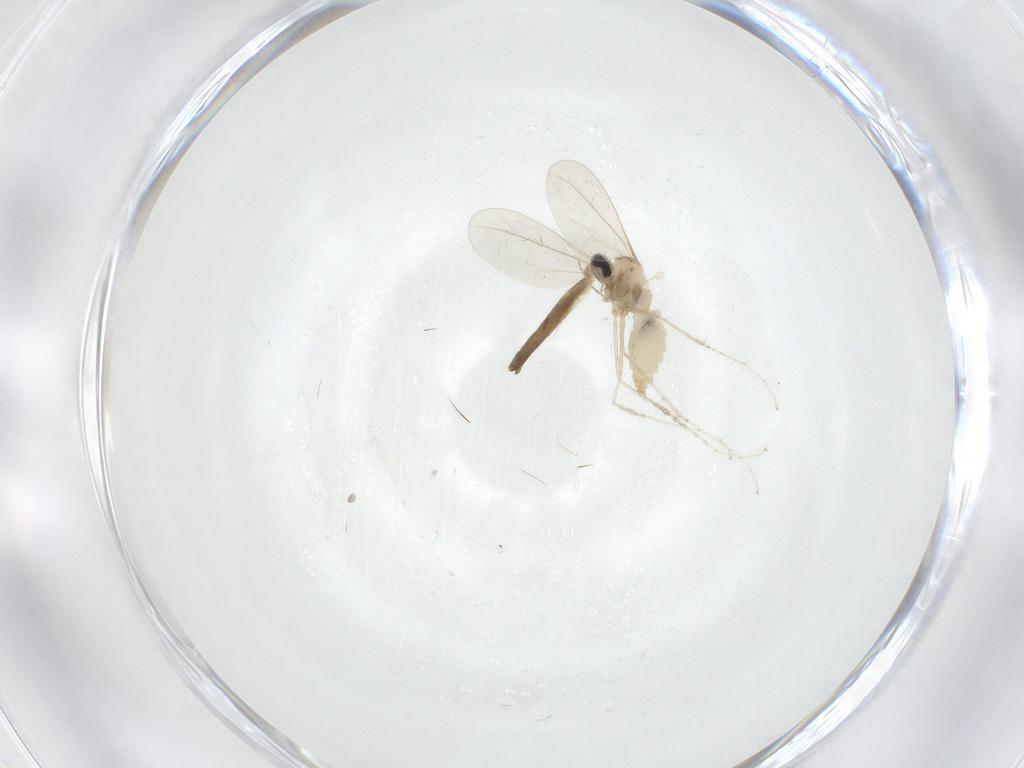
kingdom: Animalia
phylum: Arthropoda
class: Insecta
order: Diptera
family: Cecidomyiidae
